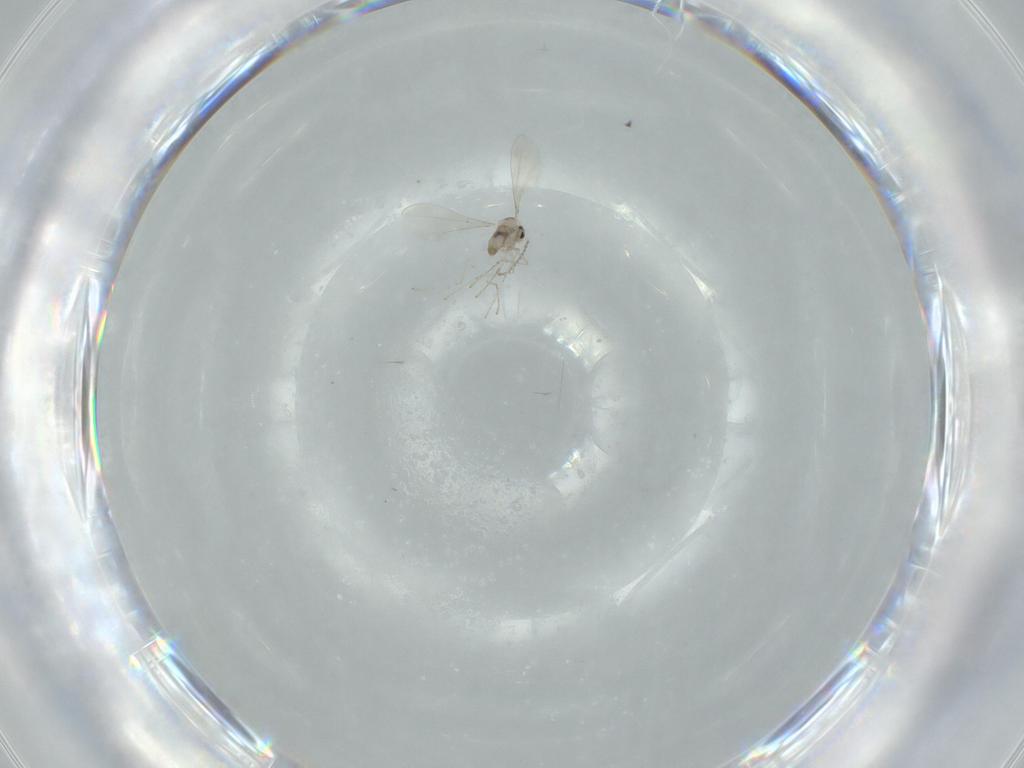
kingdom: Animalia
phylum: Arthropoda
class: Insecta
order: Diptera
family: Cecidomyiidae
